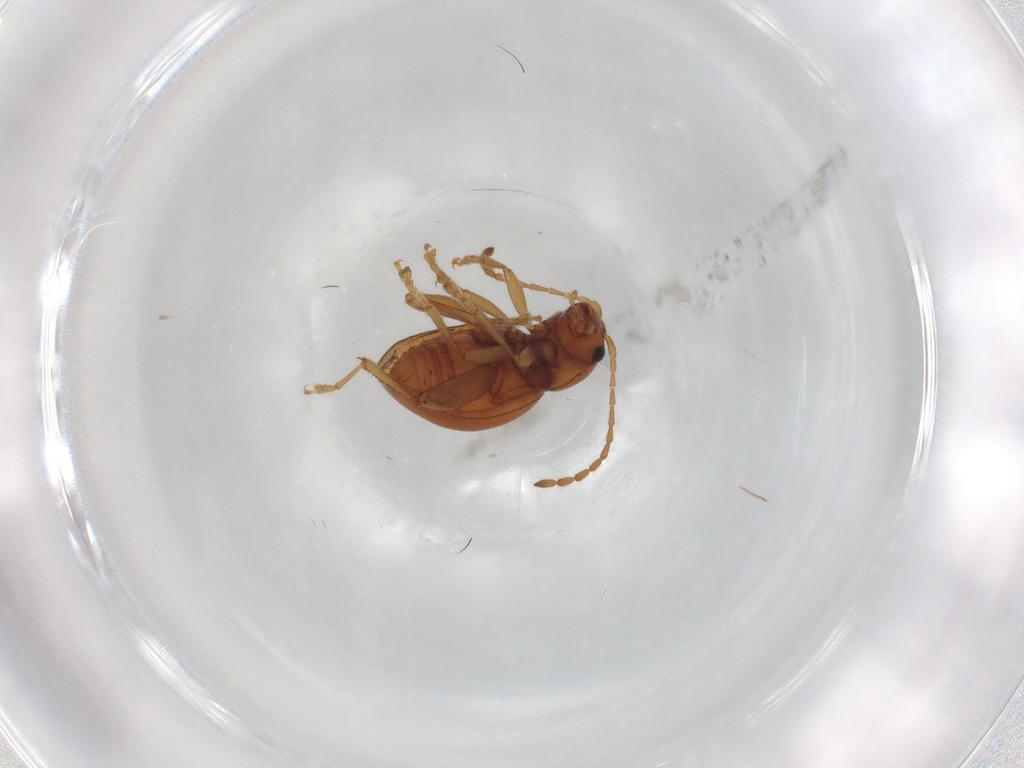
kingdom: Animalia
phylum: Arthropoda
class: Insecta
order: Coleoptera
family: Chrysomelidae
